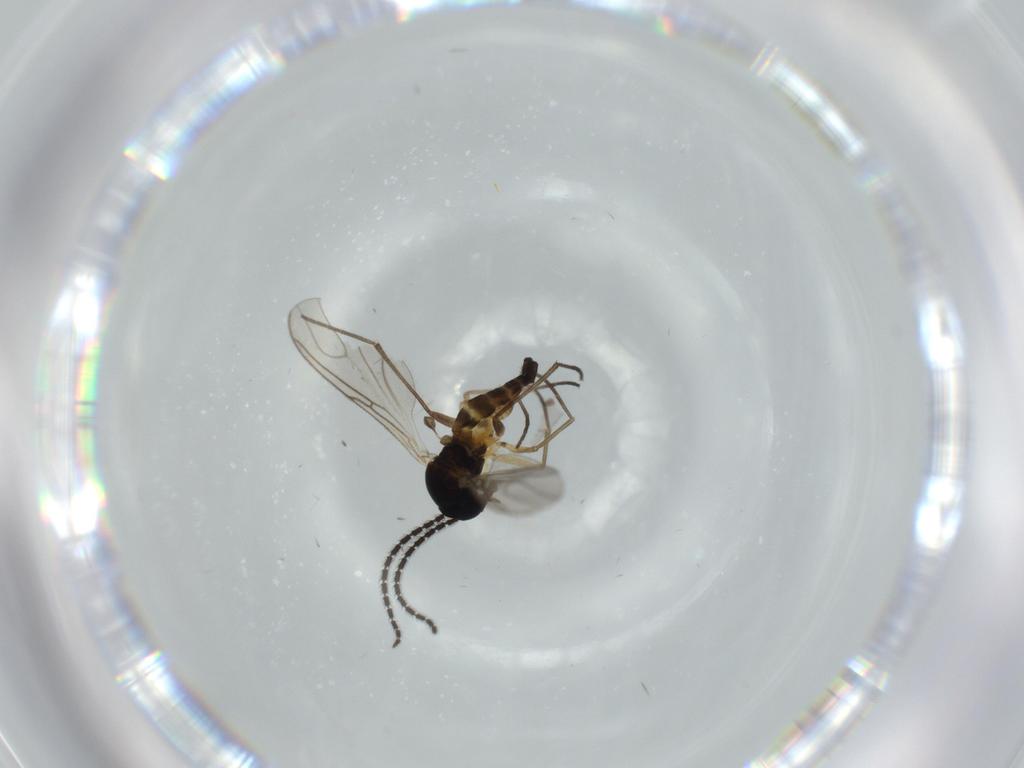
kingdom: Animalia
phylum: Arthropoda
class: Insecta
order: Diptera
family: Sciaridae
